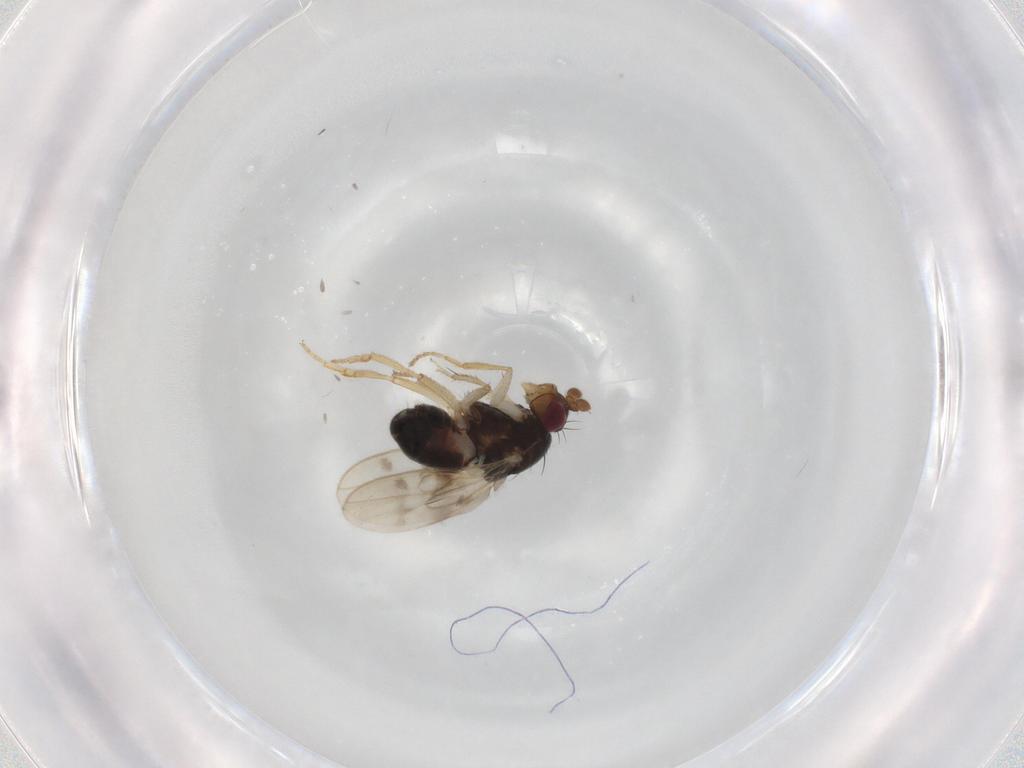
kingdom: Animalia
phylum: Arthropoda
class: Insecta
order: Diptera
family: Sphaeroceridae
